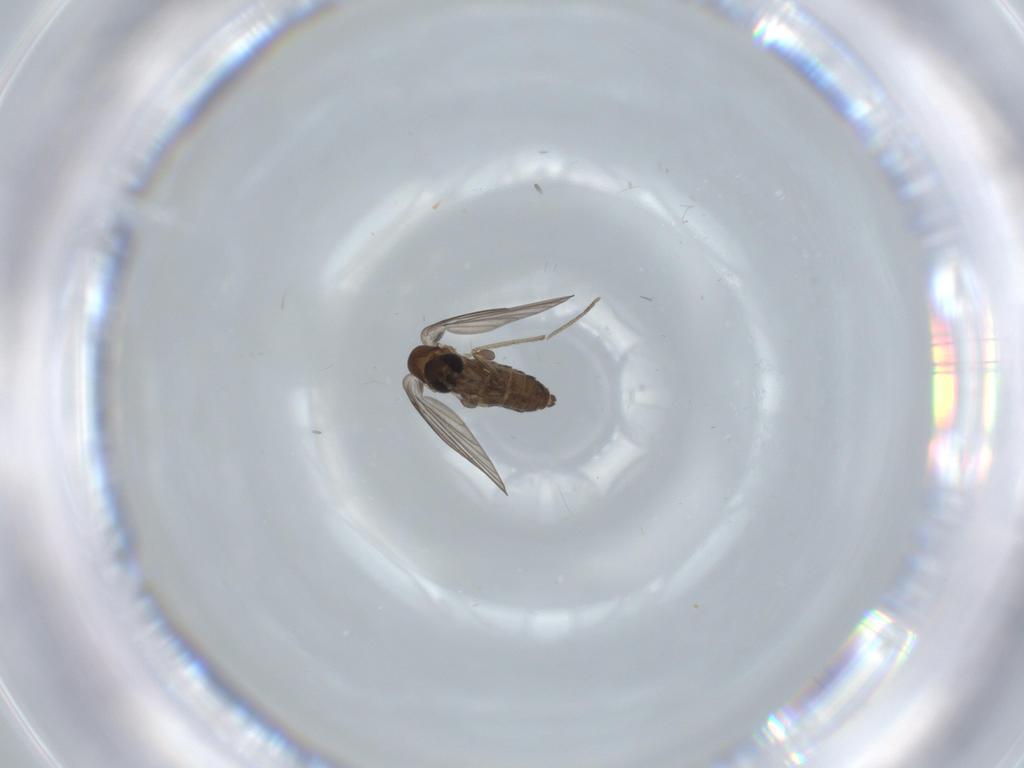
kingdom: Animalia
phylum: Arthropoda
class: Insecta
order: Diptera
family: Psychodidae
